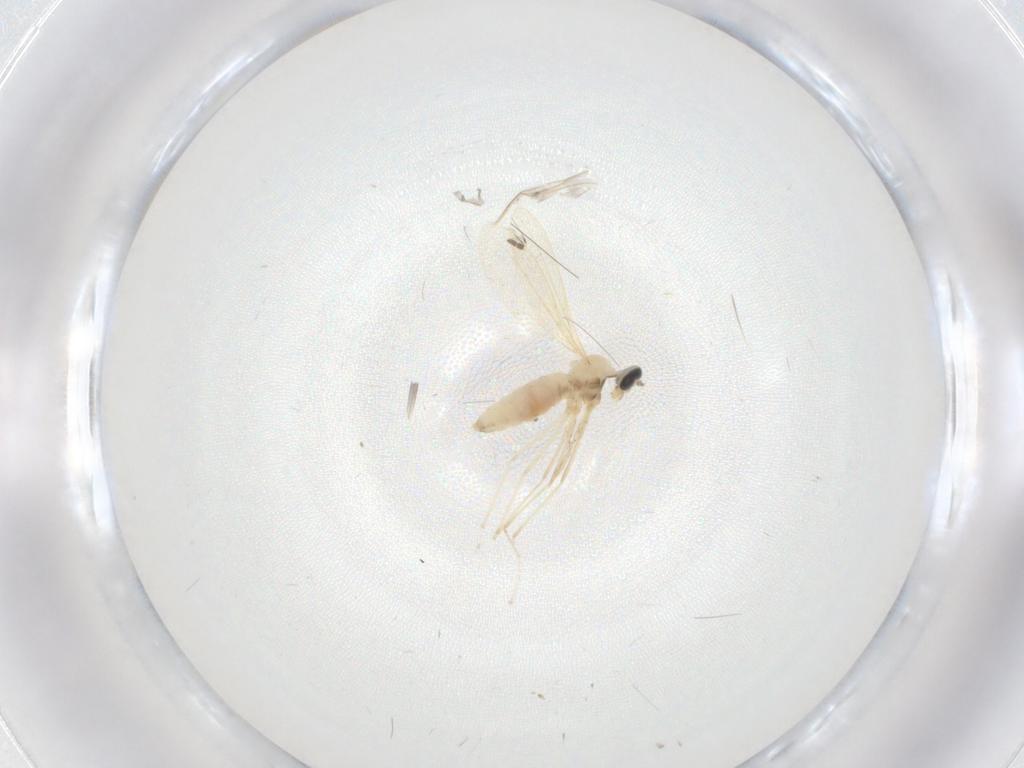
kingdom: Animalia
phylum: Arthropoda
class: Insecta
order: Diptera
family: Cecidomyiidae
